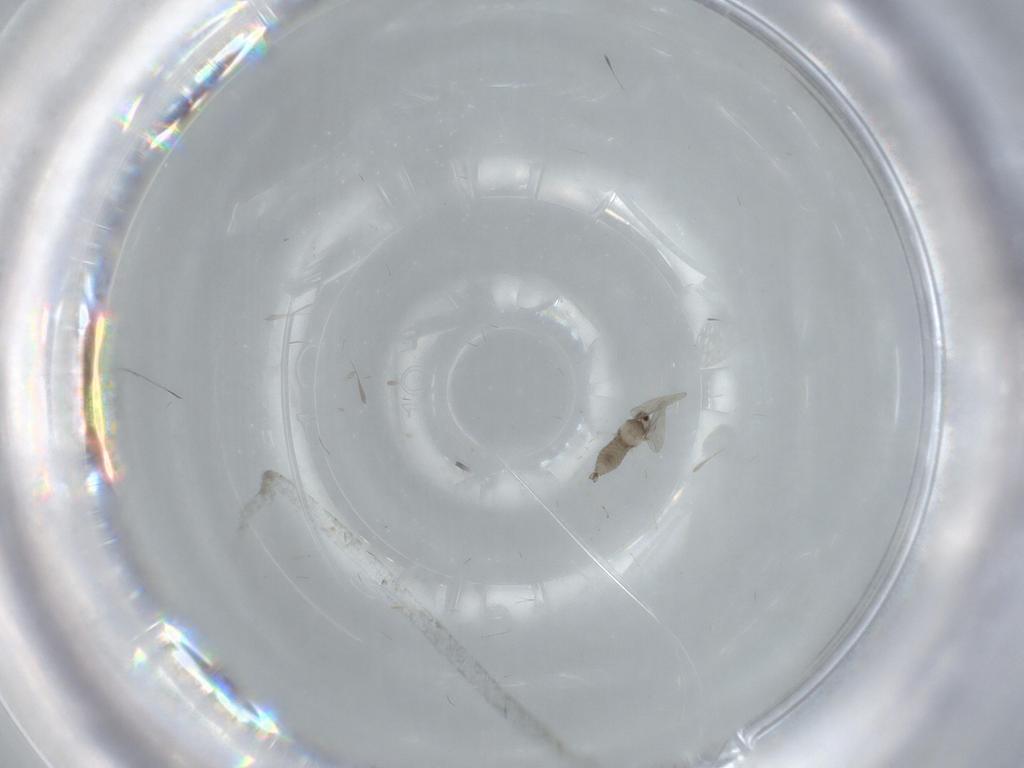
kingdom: Animalia
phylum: Arthropoda
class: Insecta
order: Diptera
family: Cecidomyiidae
